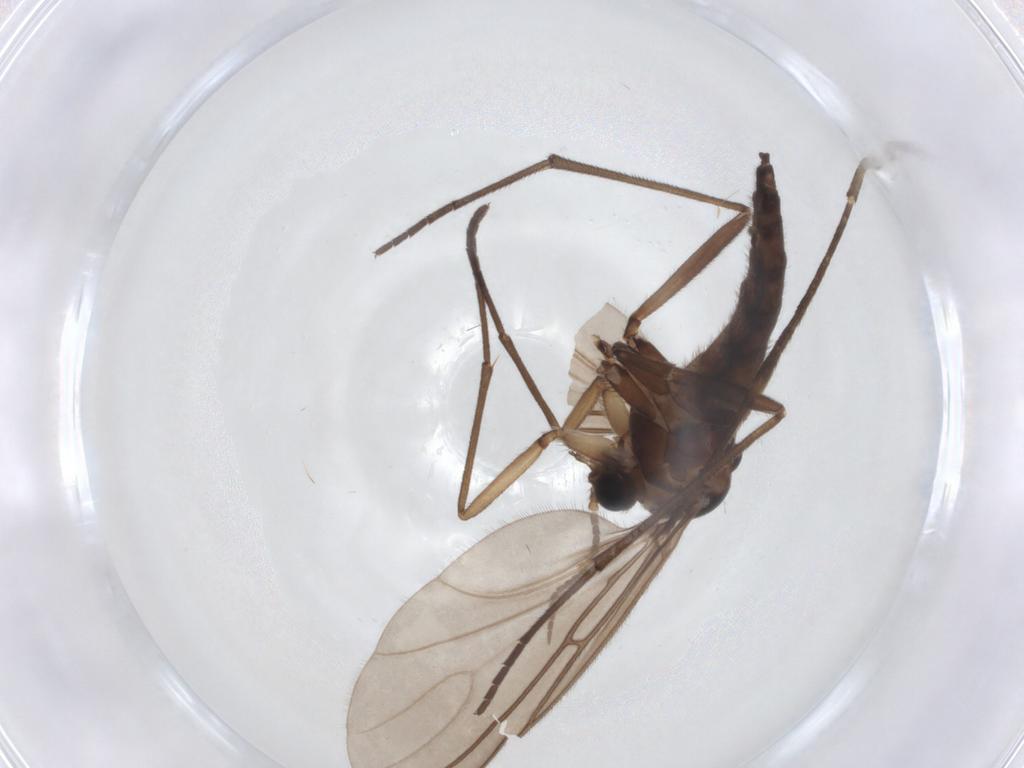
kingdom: Animalia
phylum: Arthropoda
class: Insecta
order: Diptera
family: Sciaridae
